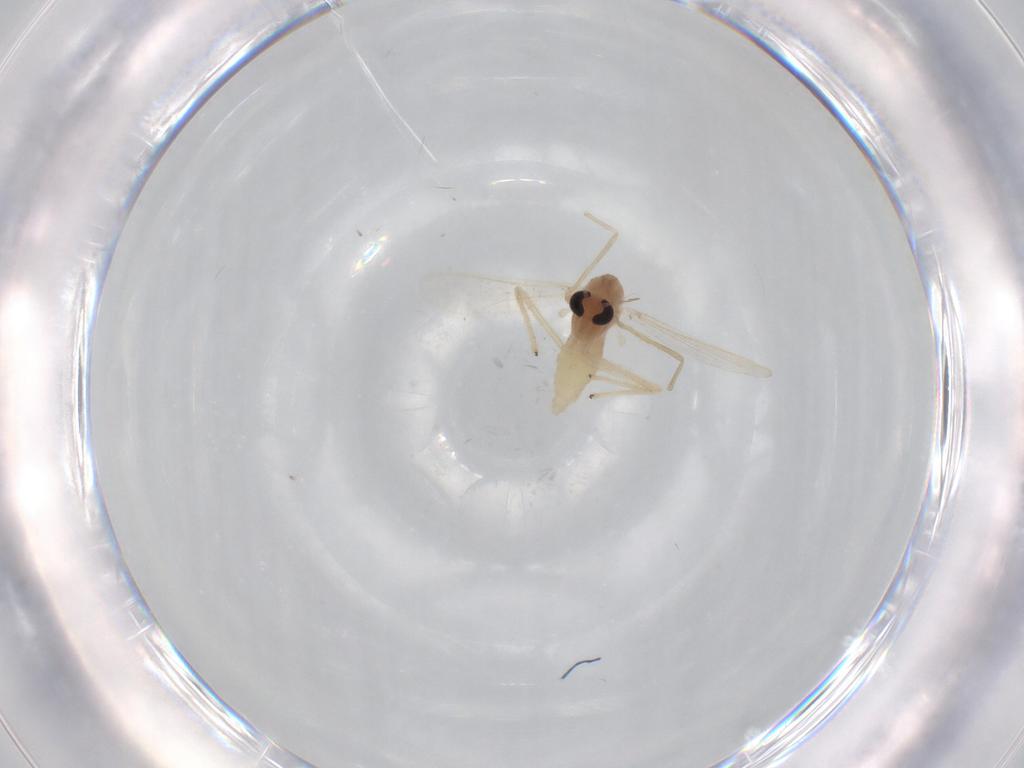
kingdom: Animalia
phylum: Arthropoda
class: Insecta
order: Diptera
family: Chironomidae
